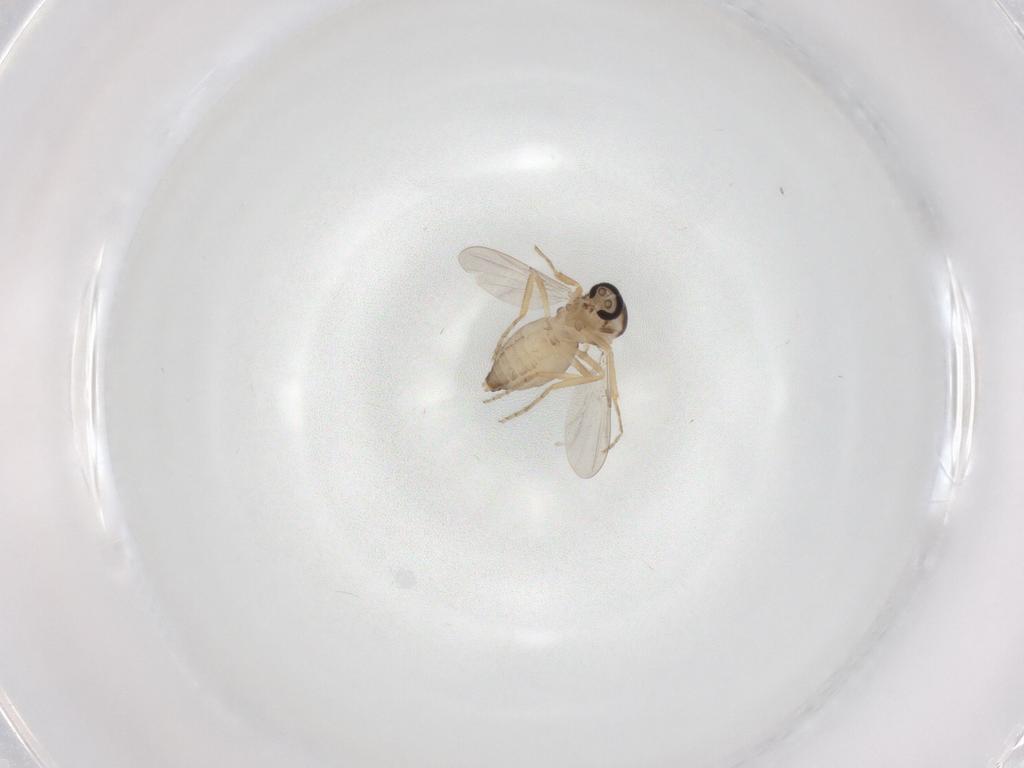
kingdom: Animalia
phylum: Arthropoda
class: Insecta
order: Diptera
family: Ceratopogonidae
